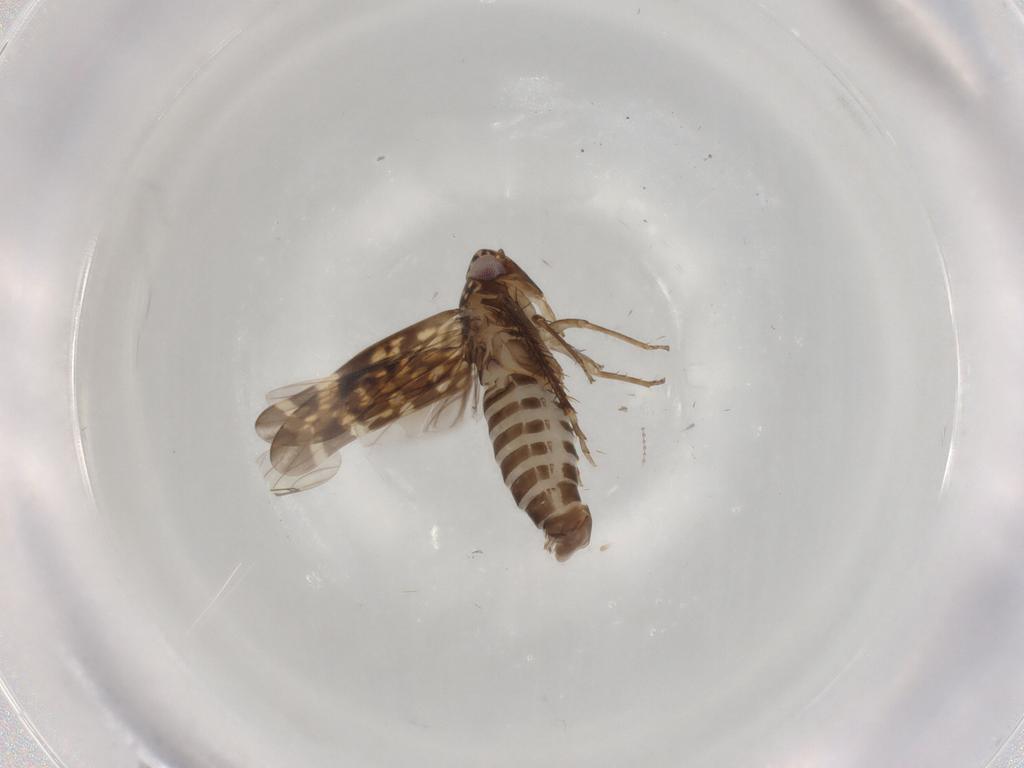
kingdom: Animalia
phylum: Arthropoda
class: Insecta
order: Hemiptera
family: Cicadellidae
